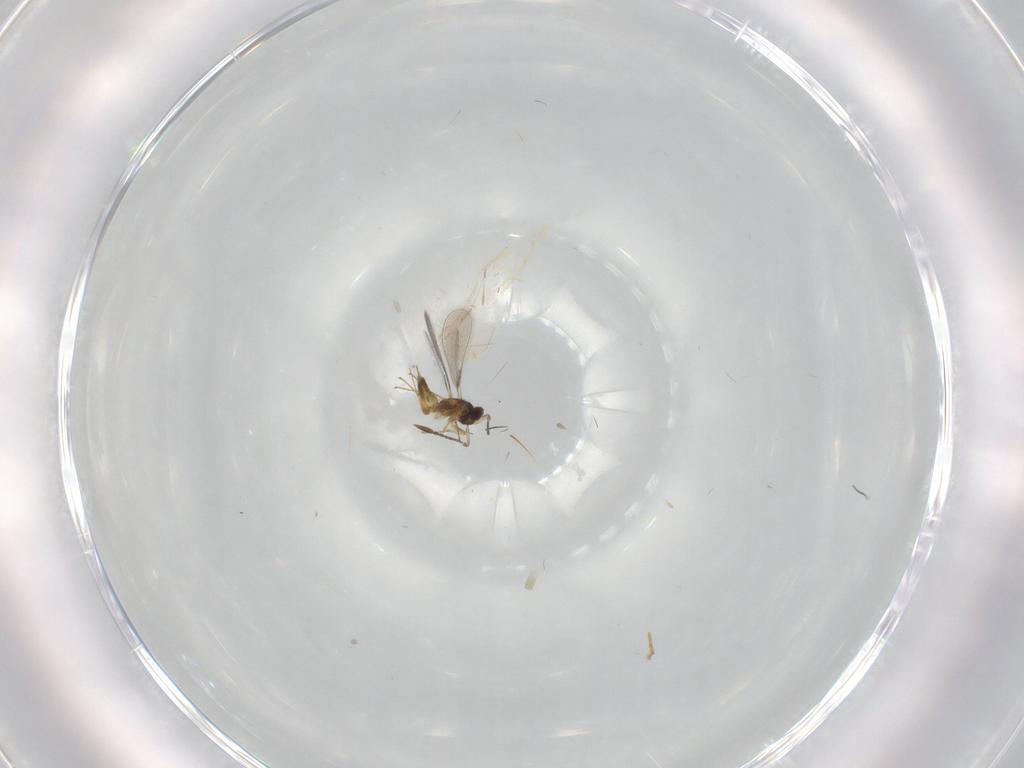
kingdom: Animalia
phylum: Arthropoda
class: Insecta
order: Hymenoptera
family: Mymaridae
